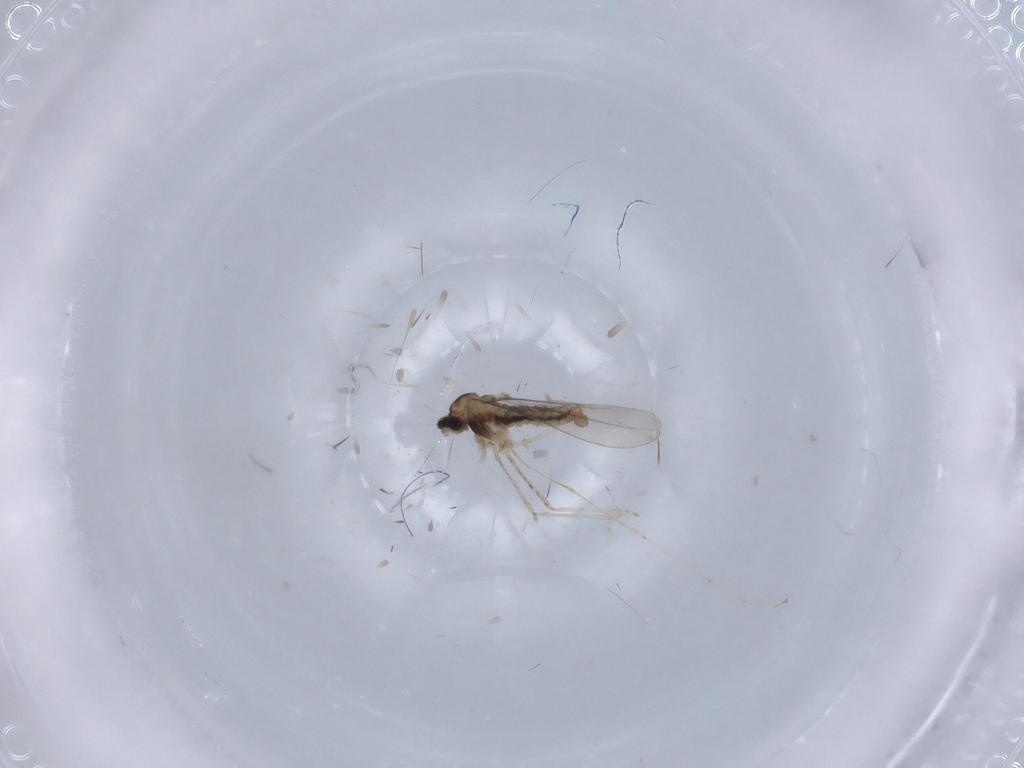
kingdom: Animalia
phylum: Arthropoda
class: Insecta
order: Diptera
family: Cecidomyiidae
